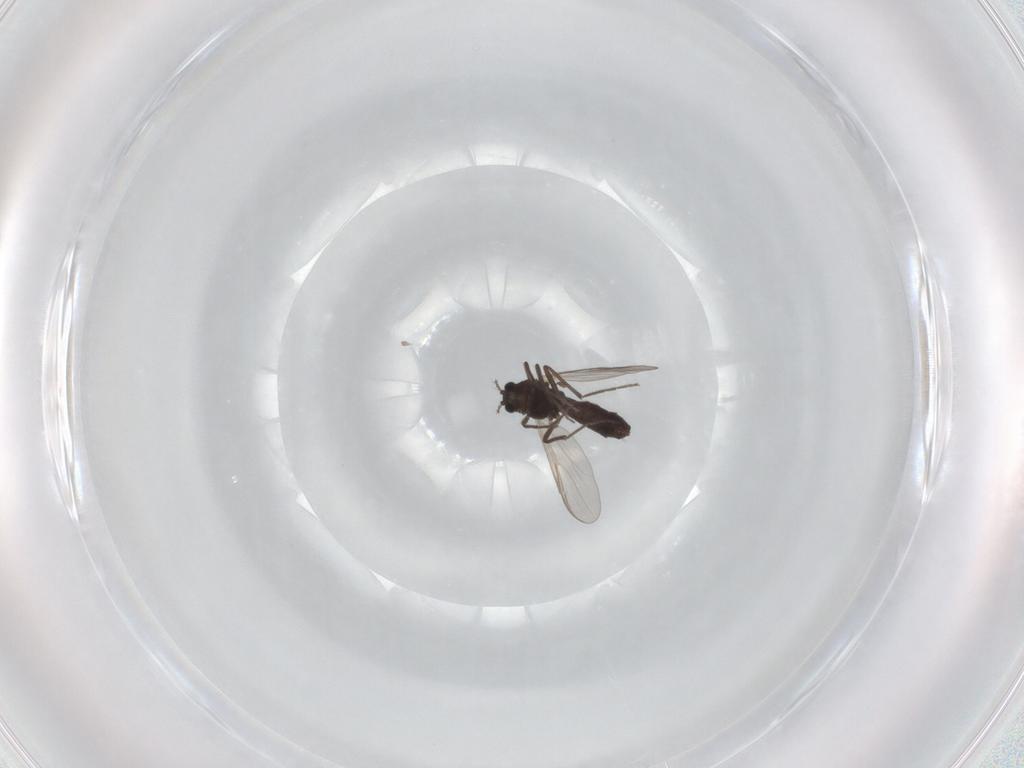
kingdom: Animalia
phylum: Arthropoda
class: Insecta
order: Diptera
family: Chironomidae
